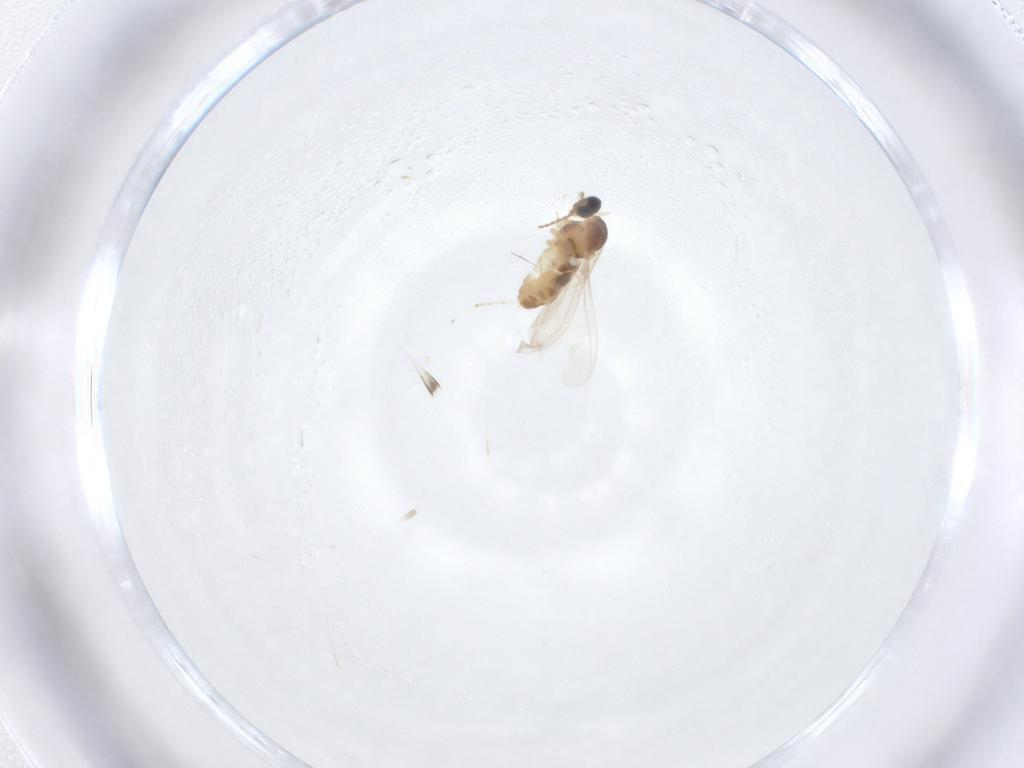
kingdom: Animalia
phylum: Arthropoda
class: Insecta
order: Diptera
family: Cecidomyiidae
